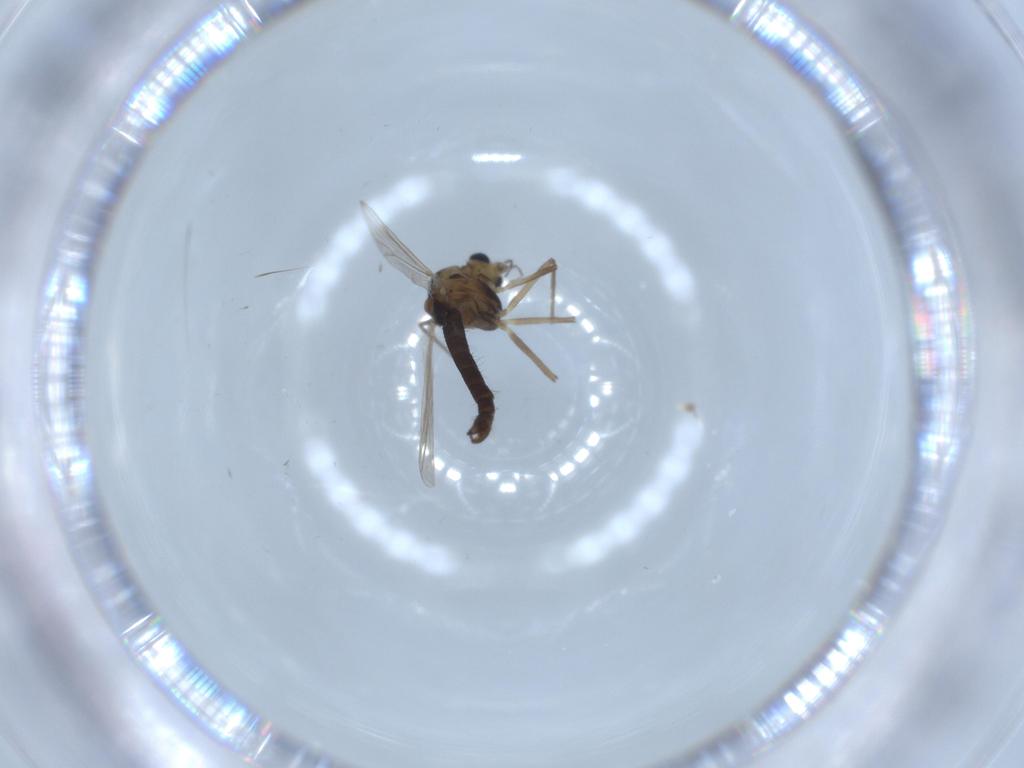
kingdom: Animalia
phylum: Arthropoda
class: Insecta
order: Diptera
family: Chironomidae
